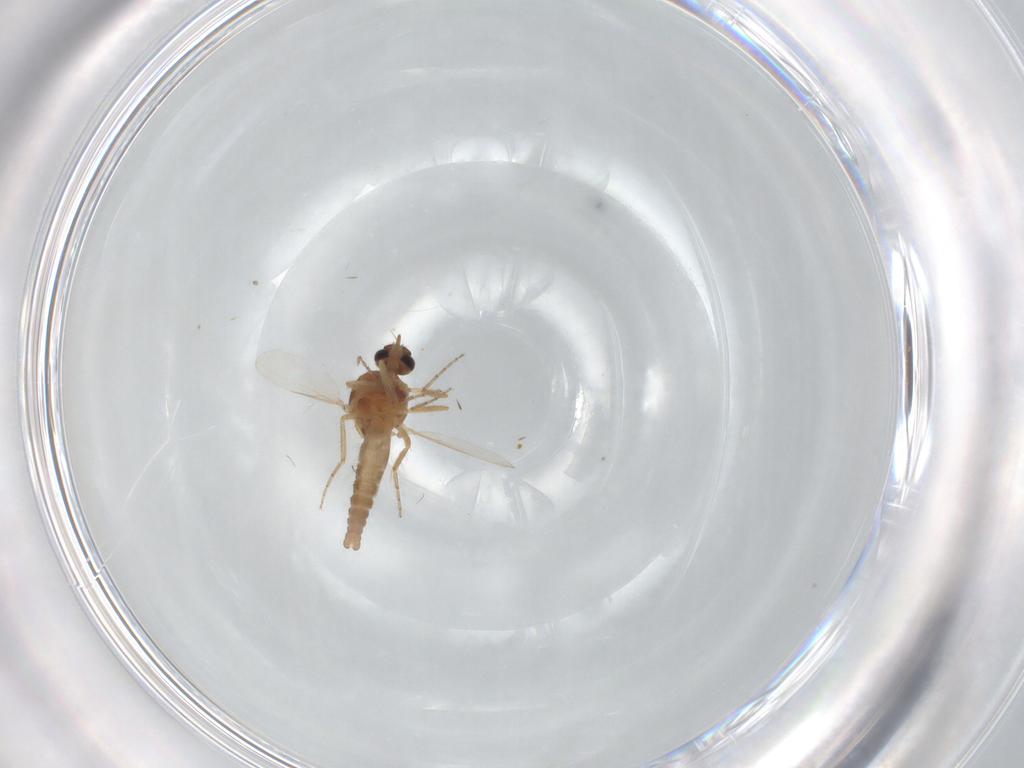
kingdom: Animalia
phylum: Arthropoda
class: Insecta
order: Diptera
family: Ceratopogonidae
